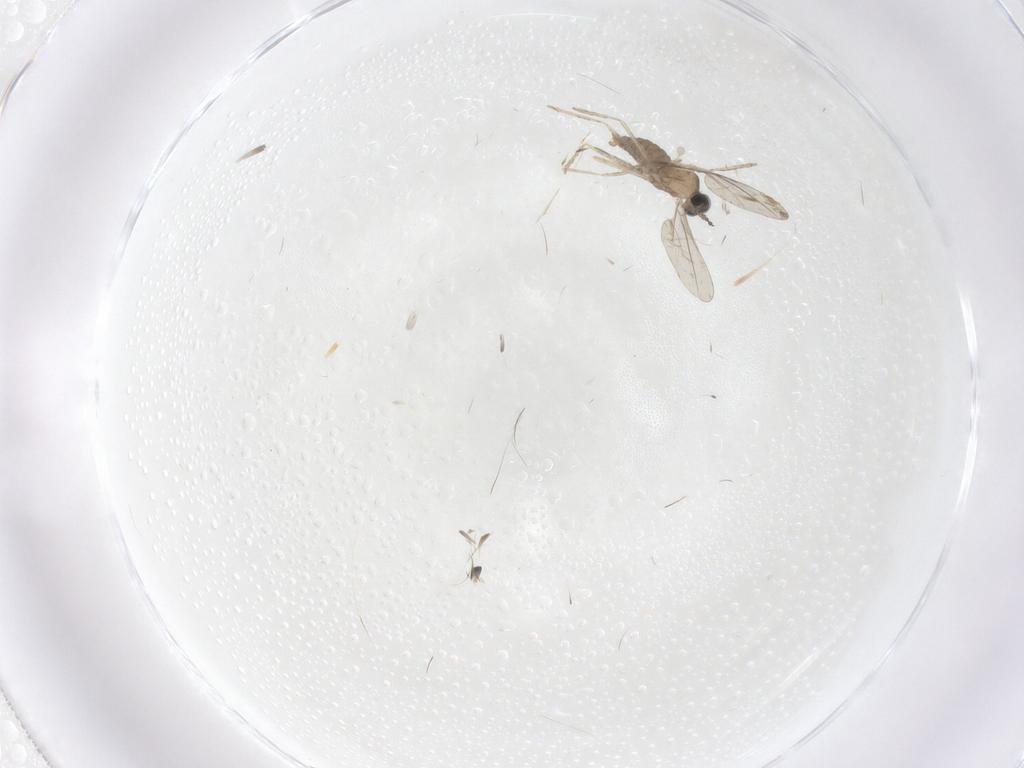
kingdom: Animalia
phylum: Arthropoda
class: Insecta
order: Diptera
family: Cecidomyiidae
